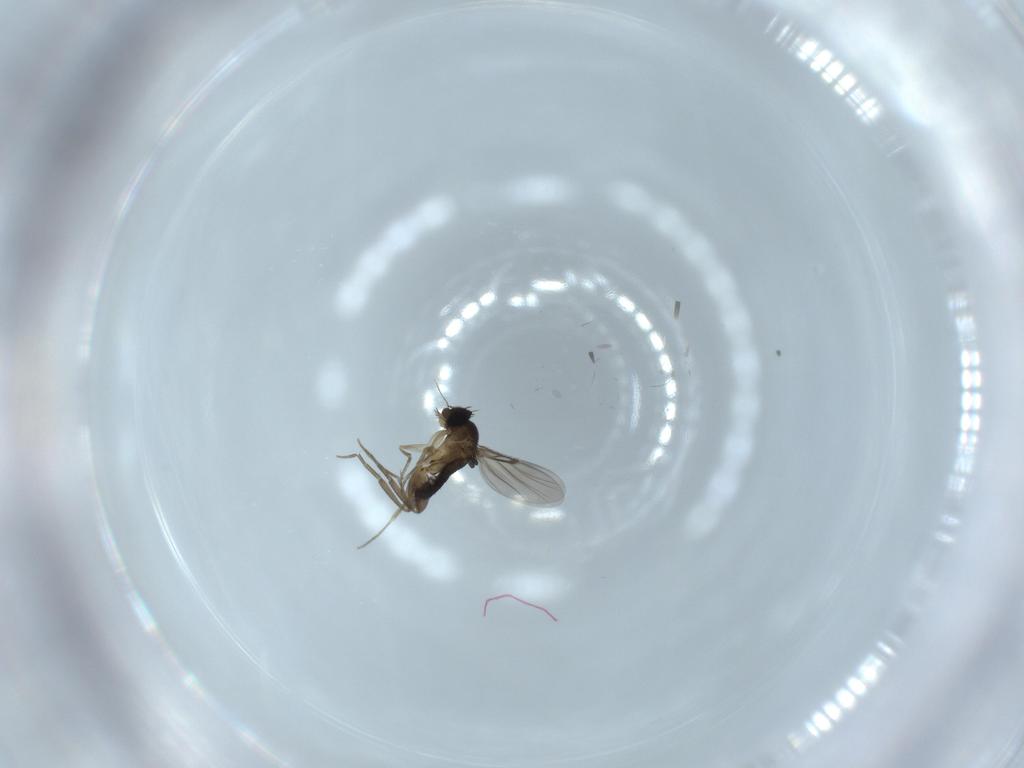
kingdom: Animalia
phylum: Arthropoda
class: Insecta
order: Diptera
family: Phoridae
